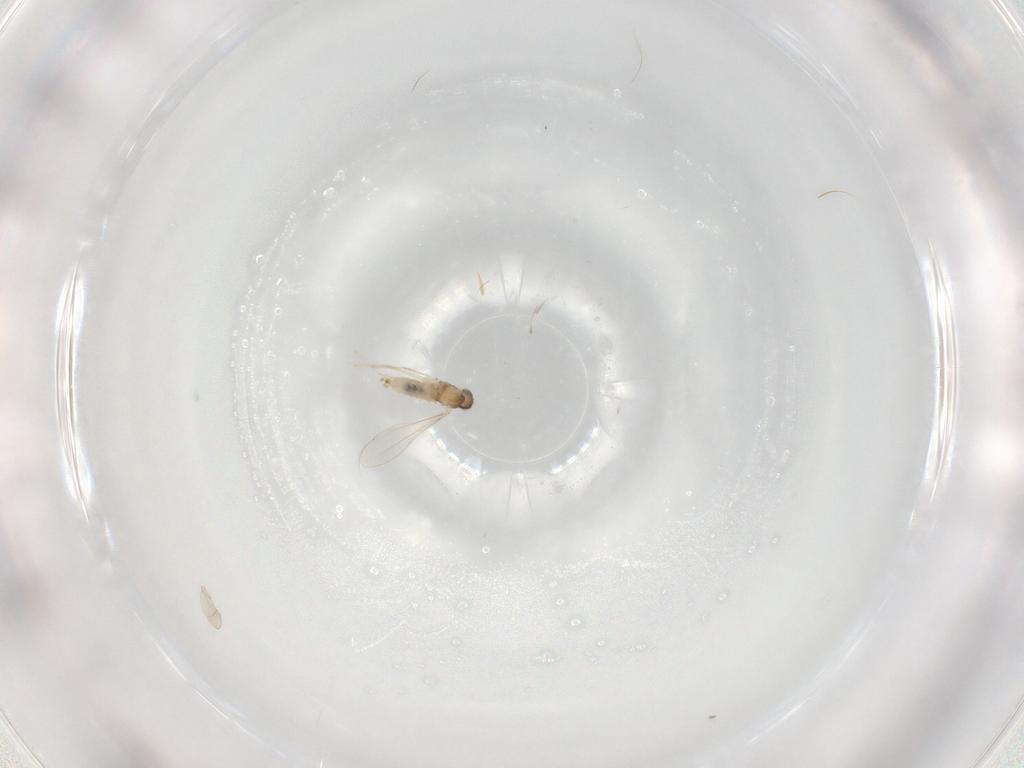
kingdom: Animalia
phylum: Arthropoda
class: Insecta
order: Diptera
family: Cecidomyiidae
